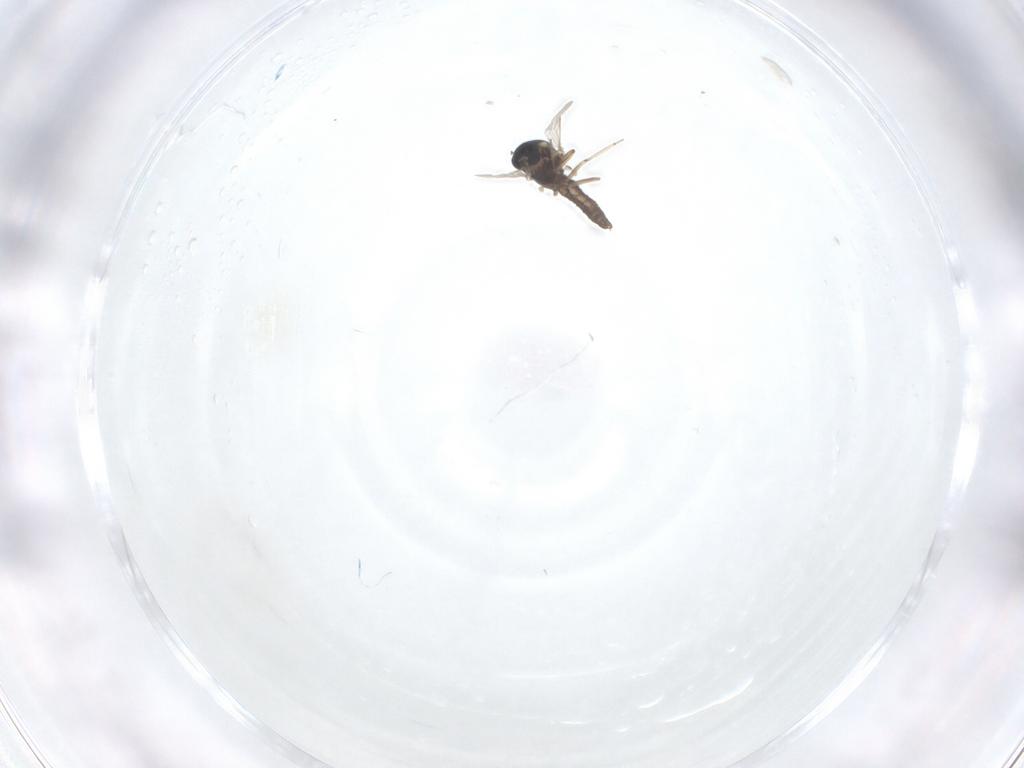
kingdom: Animalia
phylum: Arthropoda
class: Insecta
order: Diptera
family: Ceratopogonidae
